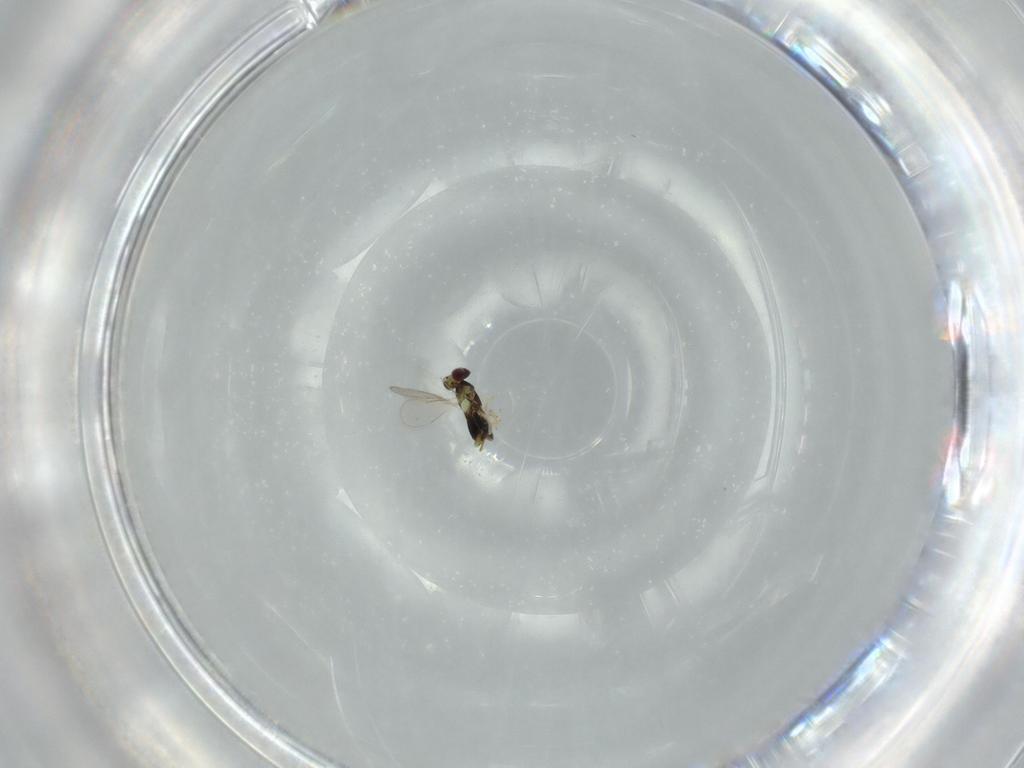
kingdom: Animalia
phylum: Arthropoda
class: Insecta
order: Hymenoptera
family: Aphelinidae
